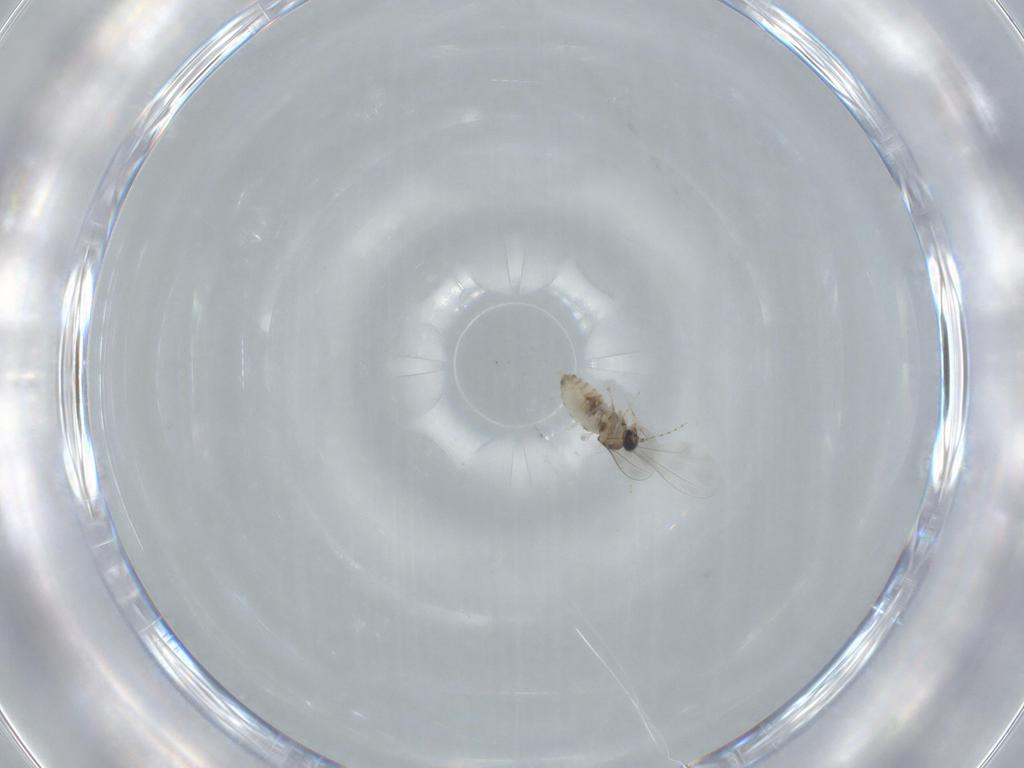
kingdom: Animalia
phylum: Arthropoda
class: Insecta
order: Diptera
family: Cecidomyiidae
